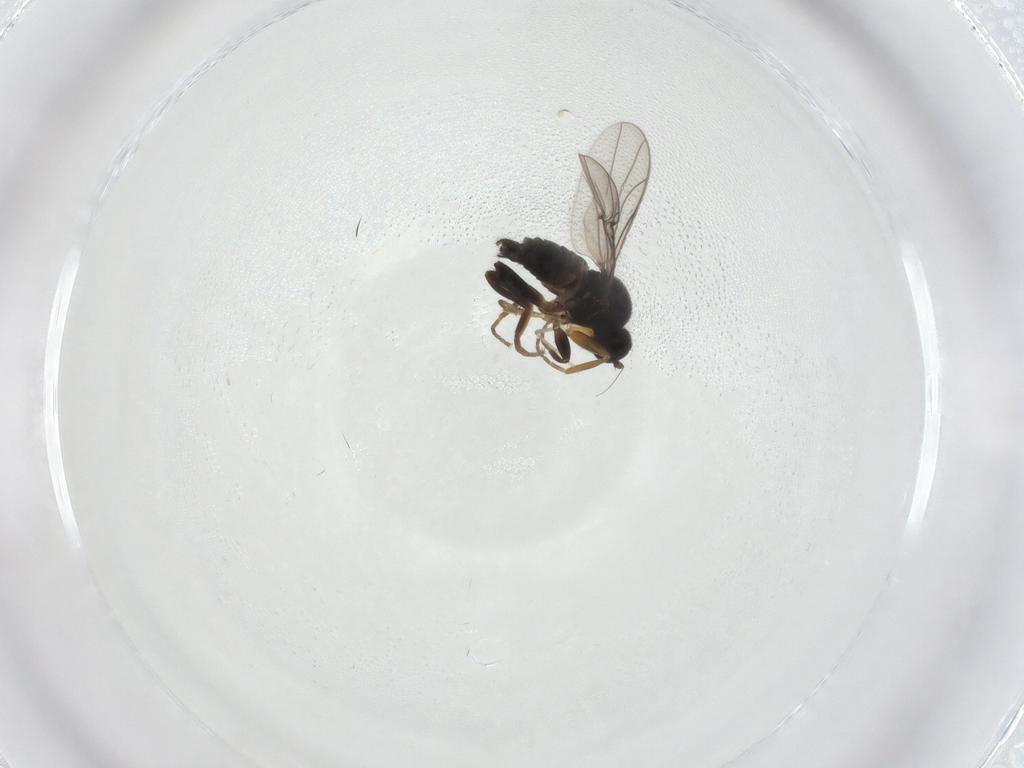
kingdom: Animalia
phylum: Arthropoda
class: Insecta
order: Diptera
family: Hybotidae
